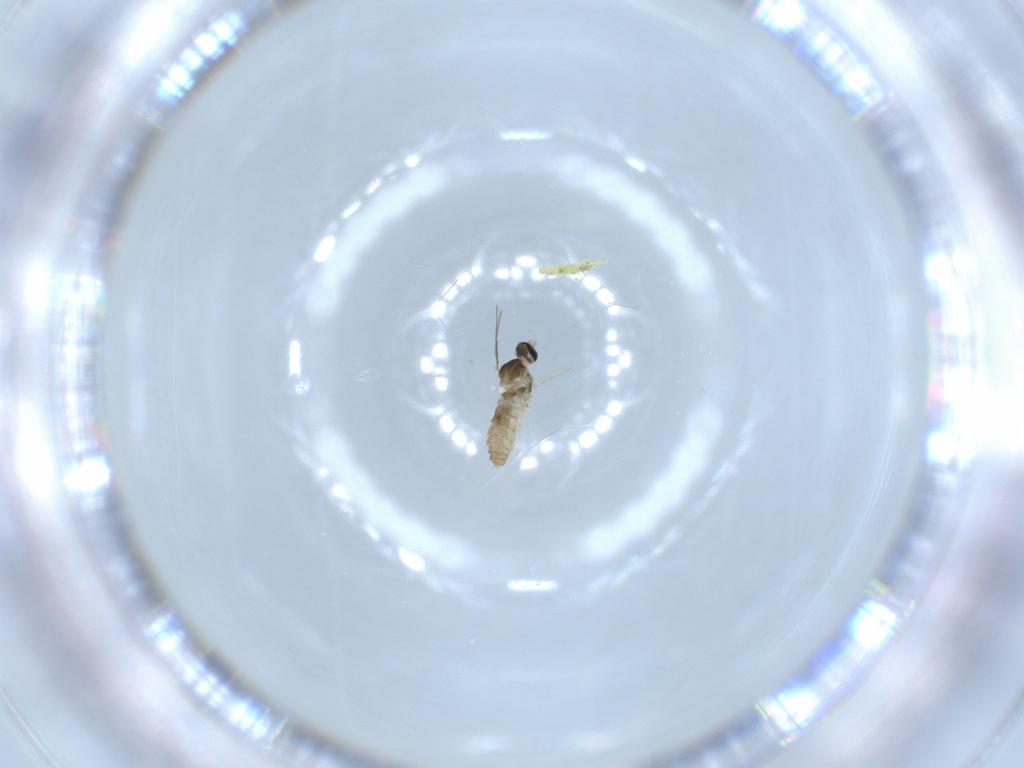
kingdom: Animalia
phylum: Arthropoda
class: Insecta
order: Diptera
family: Cecidomyiidae
